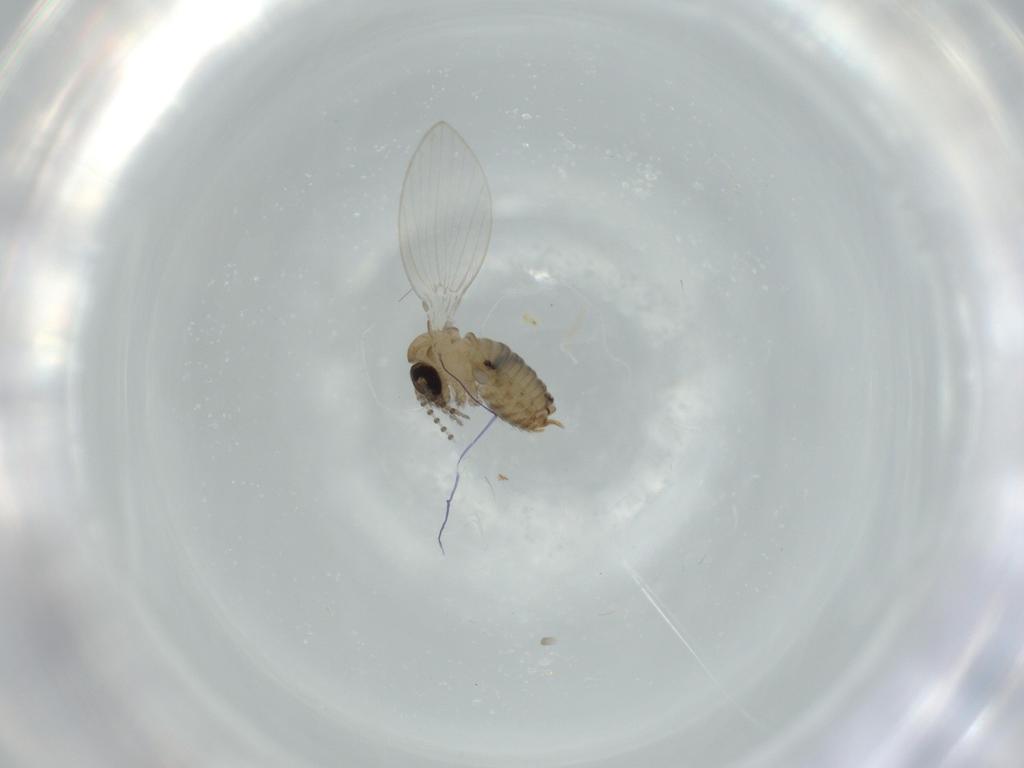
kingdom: Animalia
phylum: Arthropoda
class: Insecta
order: Diptera
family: Psychodidae
